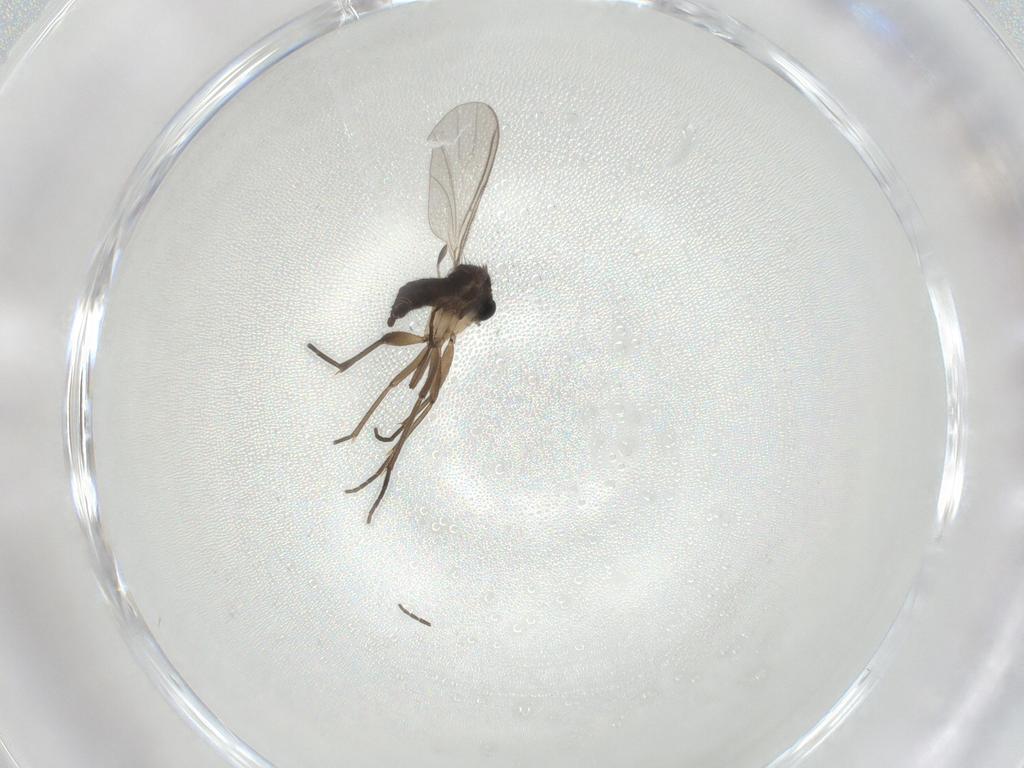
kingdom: Animalia
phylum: Arthropoda
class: Insecta
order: Diptera
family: Sciaridae
